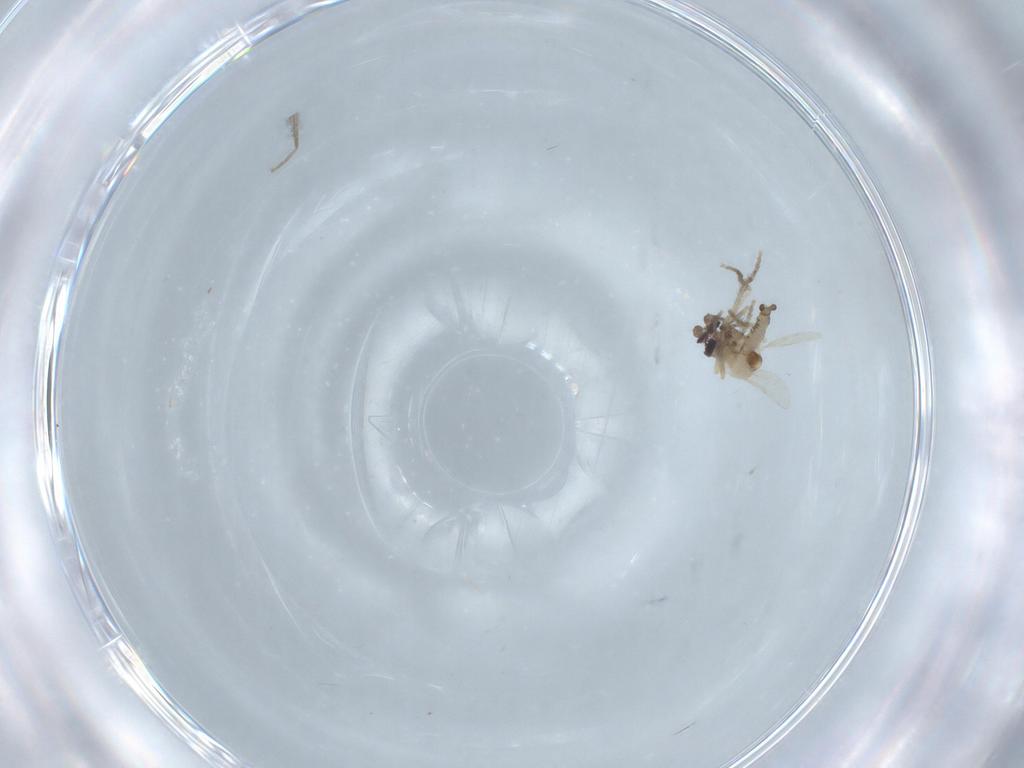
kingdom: Animalia
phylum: Arthropoda
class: Insecta
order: Diptera
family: Ceratopogonidae
